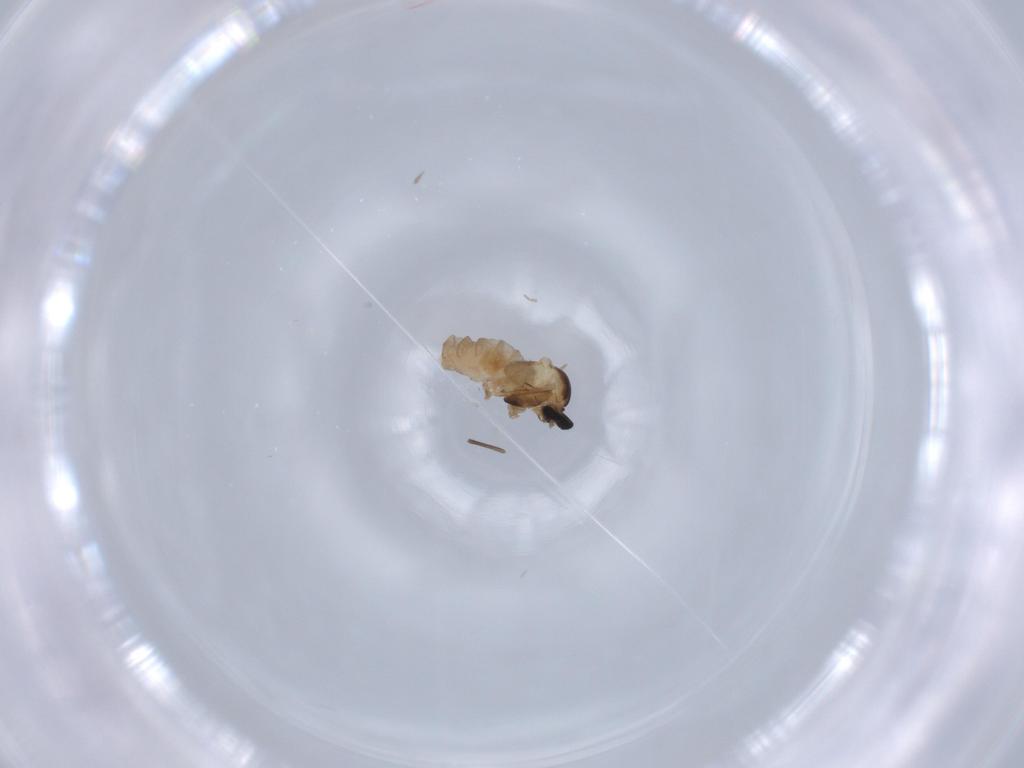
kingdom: Animalia
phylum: Arthropoda
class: Insecta
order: Diptera
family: Cecidomyiidae
